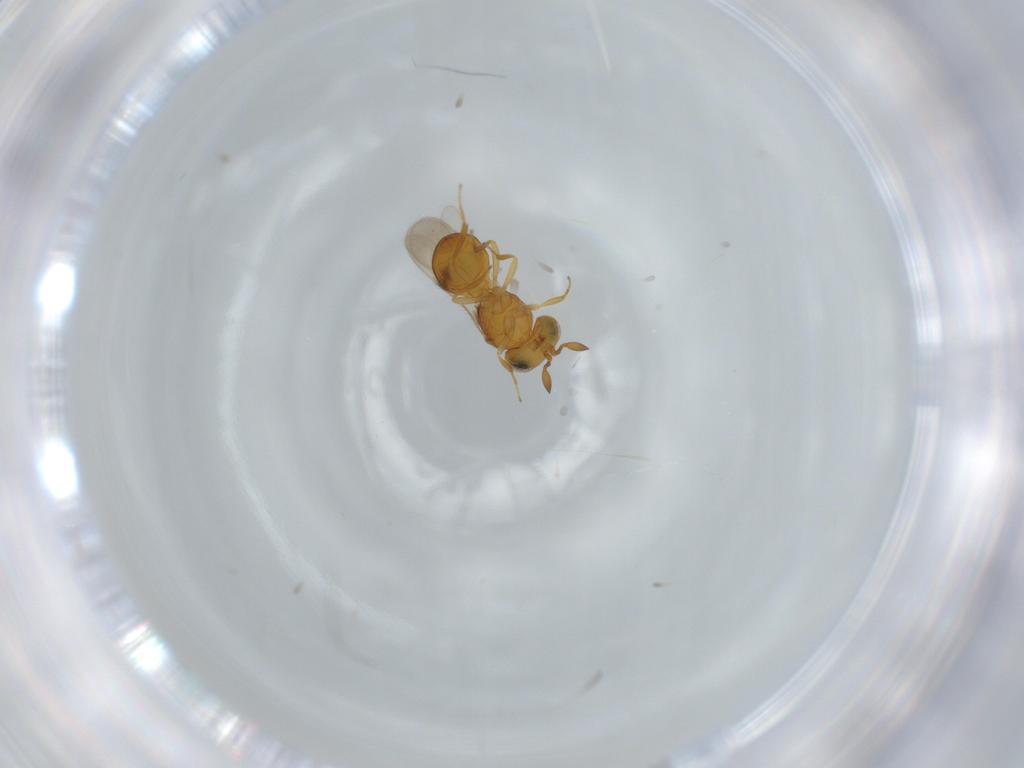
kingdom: Animalia
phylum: Arthropoda
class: Insecta
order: Hymenoptera
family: Scelionidae
